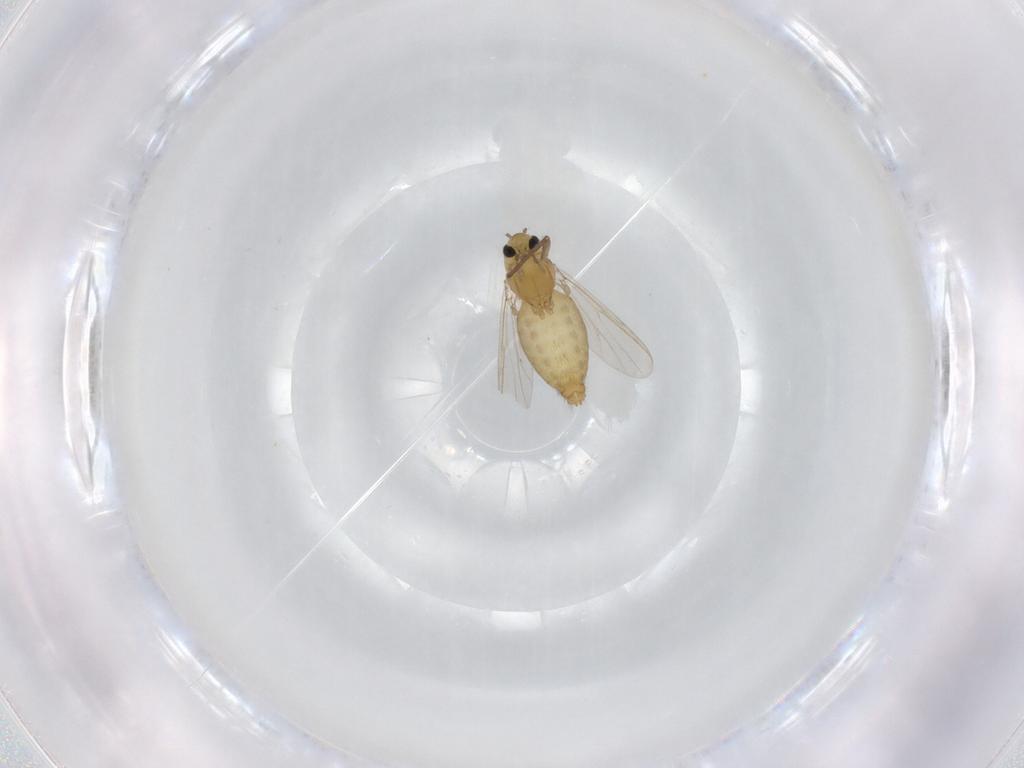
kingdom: Animalia
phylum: Arthropoda
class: Insecta
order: Diptera
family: Chironomidae
